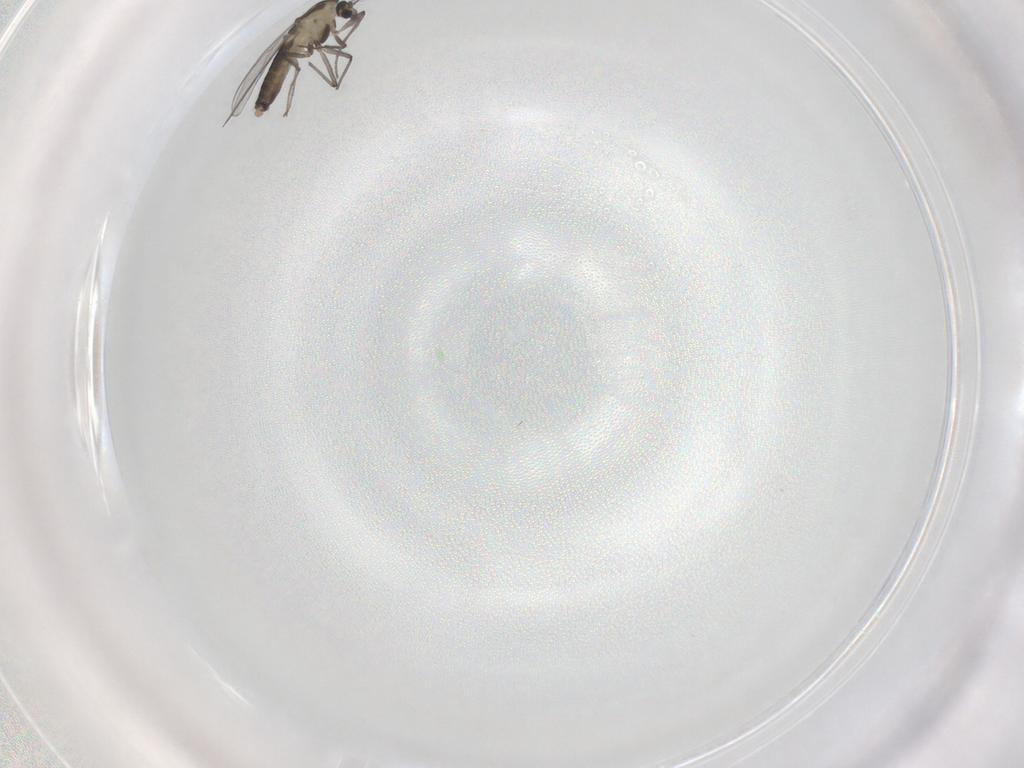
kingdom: Animalia
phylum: Arthropoda
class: Insecta
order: Diptera
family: Chironomidae
